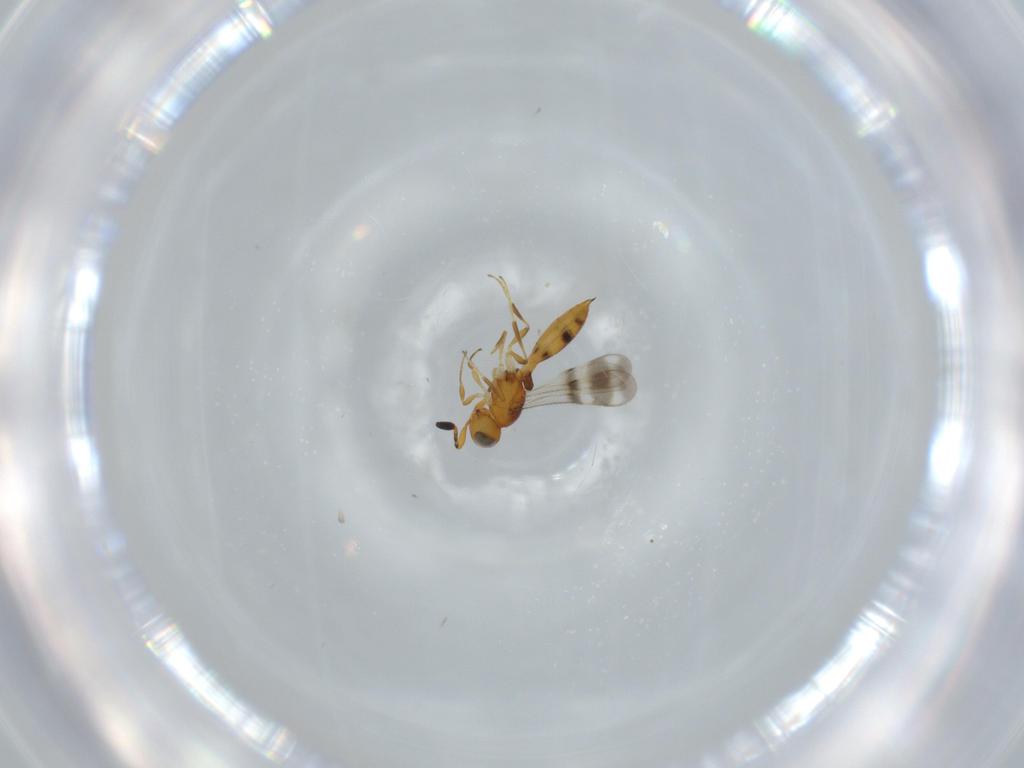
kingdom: Animalia
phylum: Arthropoda
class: Insecta
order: Hymenoptera
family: Scelionidae
